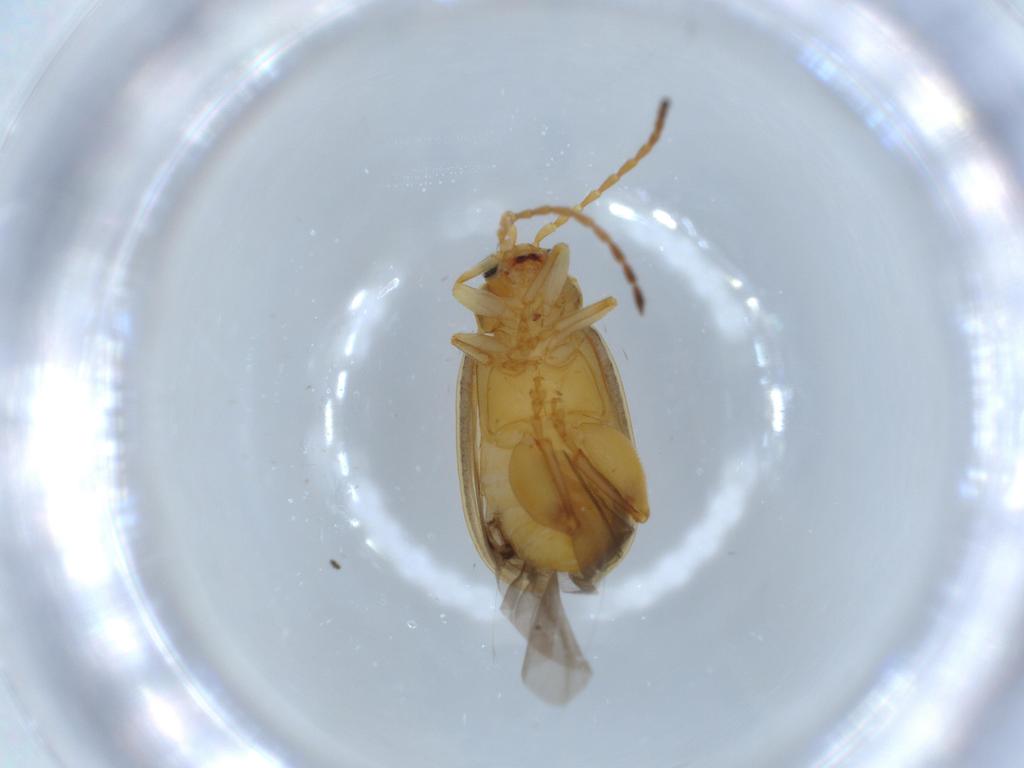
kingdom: Animalia
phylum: Arthropoda
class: Insecta
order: Coleoptera
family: Chrysomelidae
